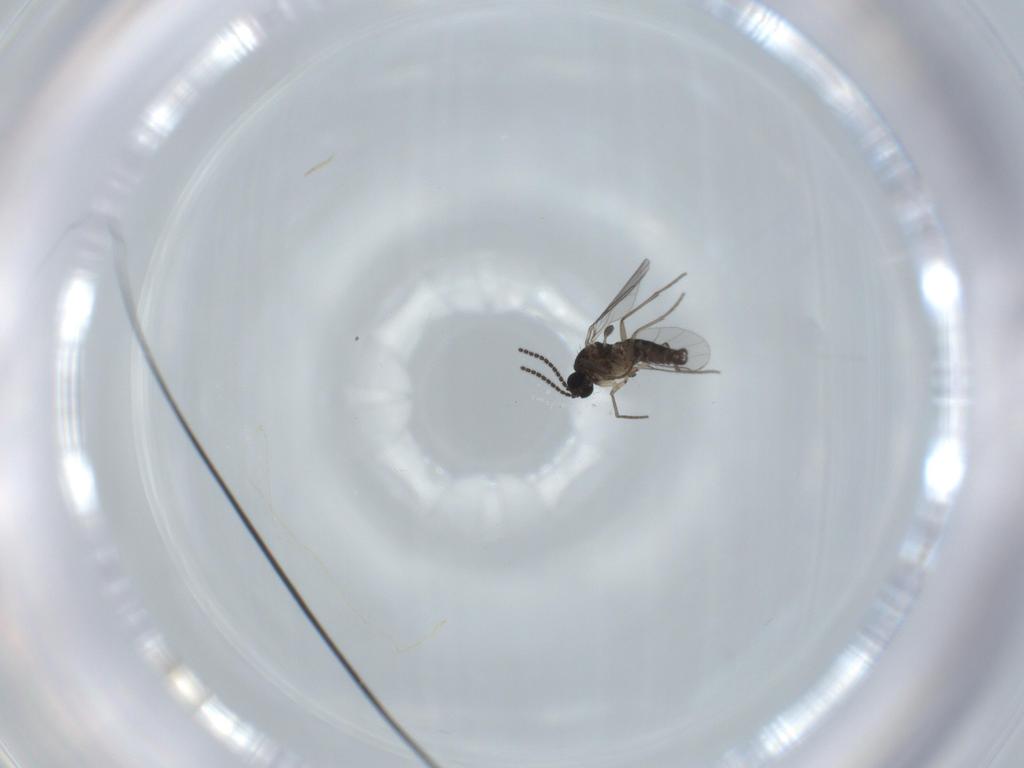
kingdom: Animalia
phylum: Arthropoda
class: Insecta
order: Diptera
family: Sciaridae
